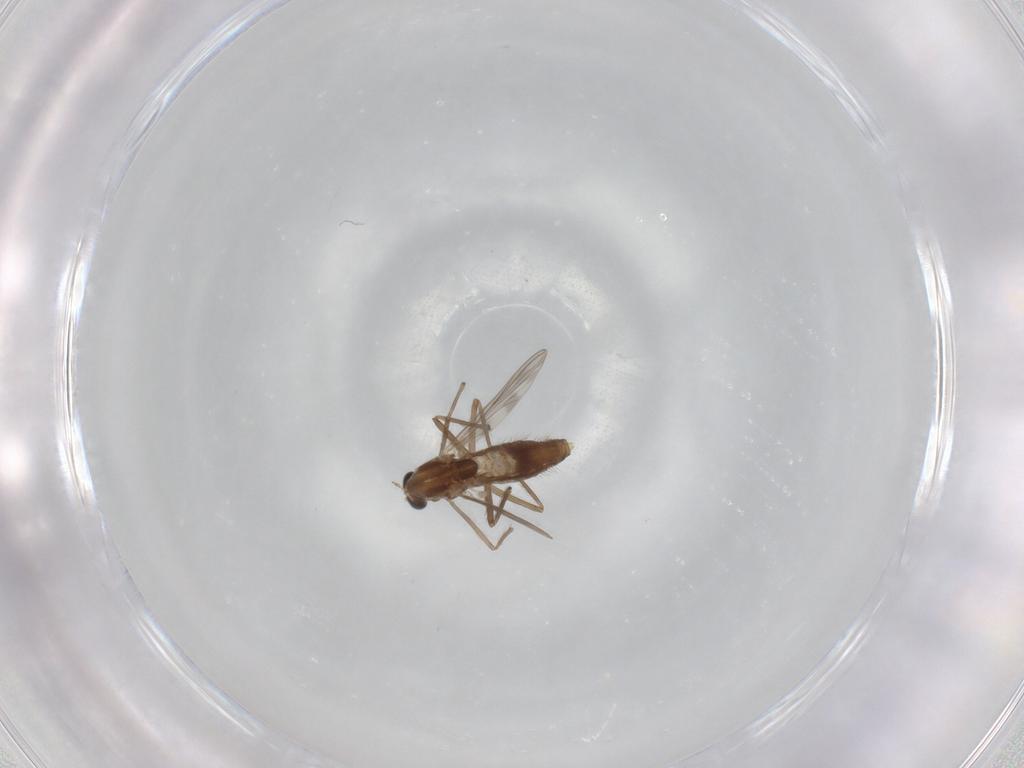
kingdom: Animalia
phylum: Arthropoda
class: Insecta
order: Diptera
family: Chironomidae
